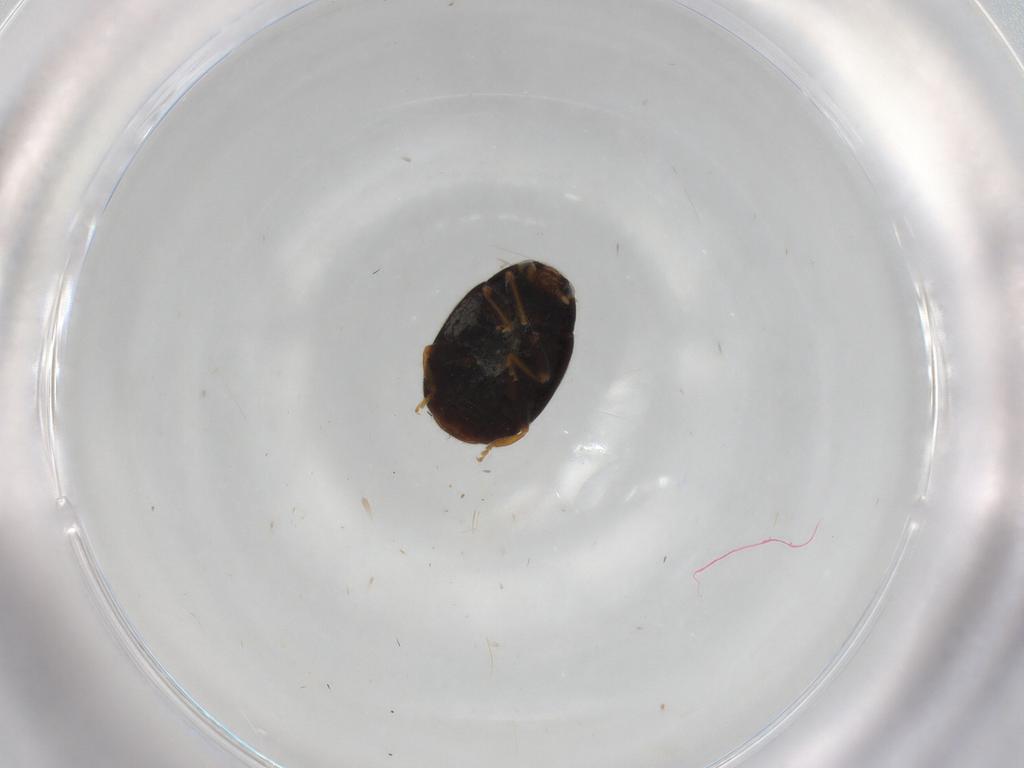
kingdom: Animalia
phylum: Arthropoda
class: Insecta
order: Coleoptera
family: Coccinellidae
